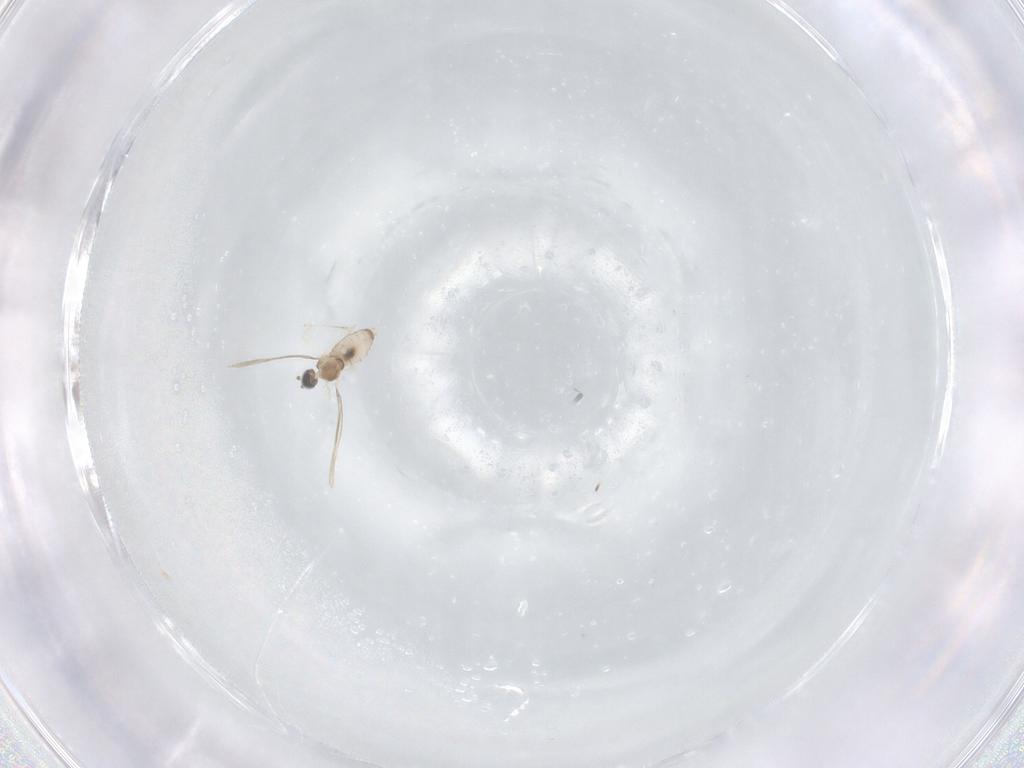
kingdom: Animalia
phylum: Arthropoda
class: Insecta
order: Diptera
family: Cecidomyiidae
